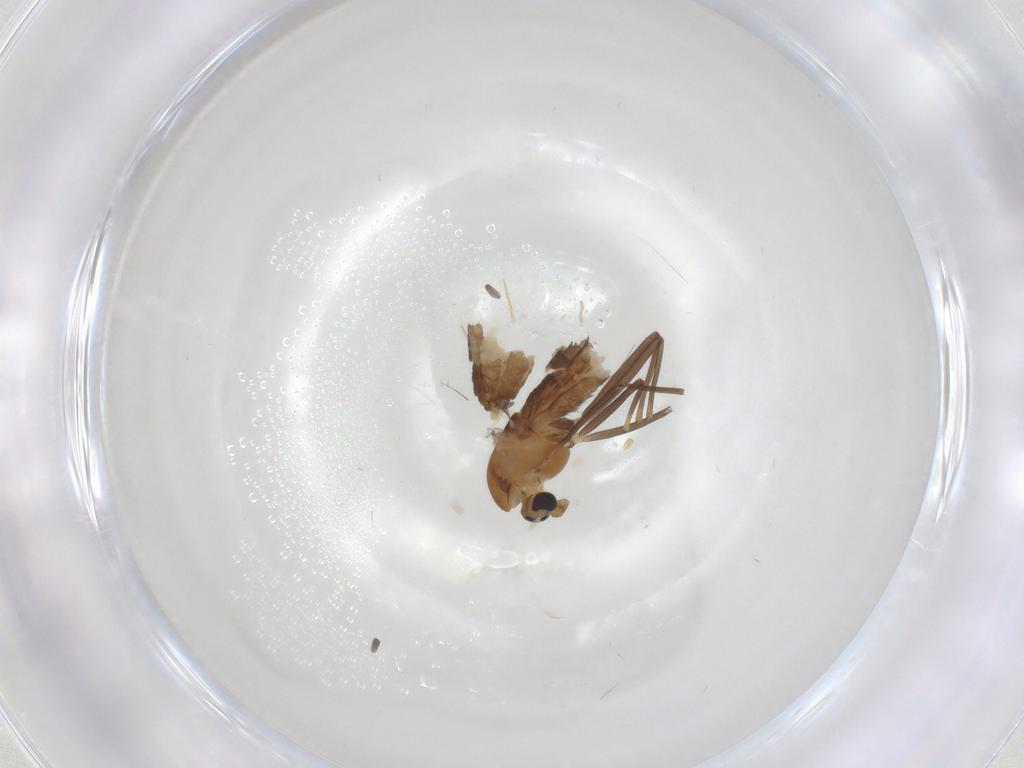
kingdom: Animalia
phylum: Arthropoda
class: Insecta
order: Diptera
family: Chironomidae
